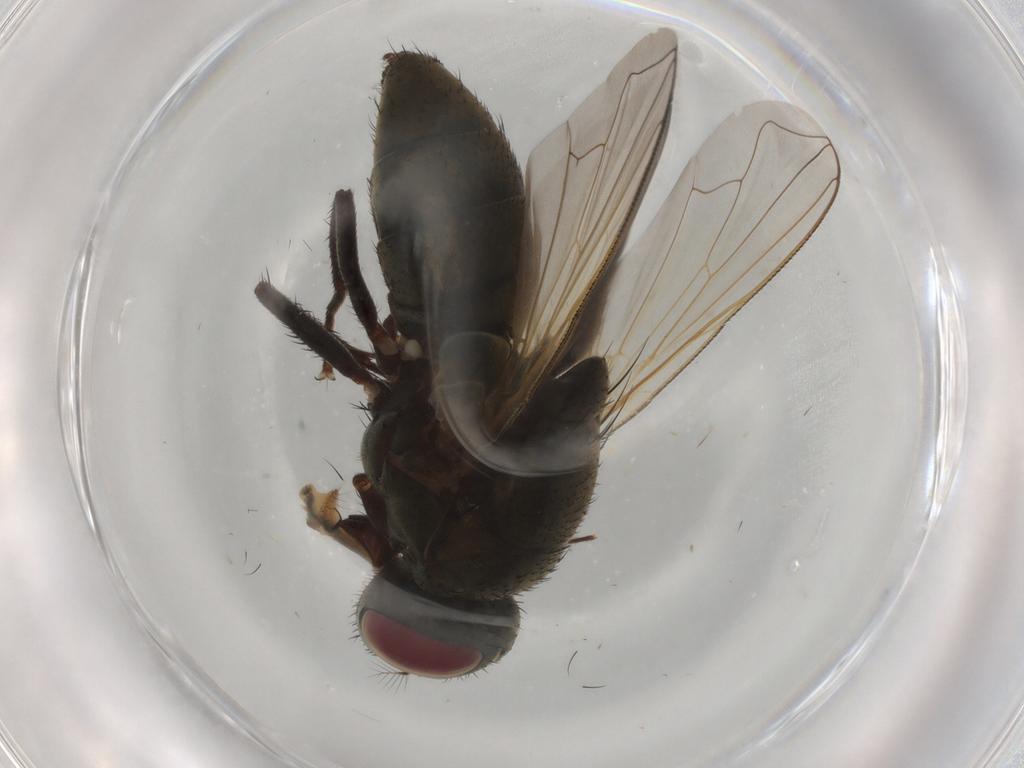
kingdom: Animalia
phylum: Arthropoda
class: Insecta
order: Diptera
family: Muscidae
